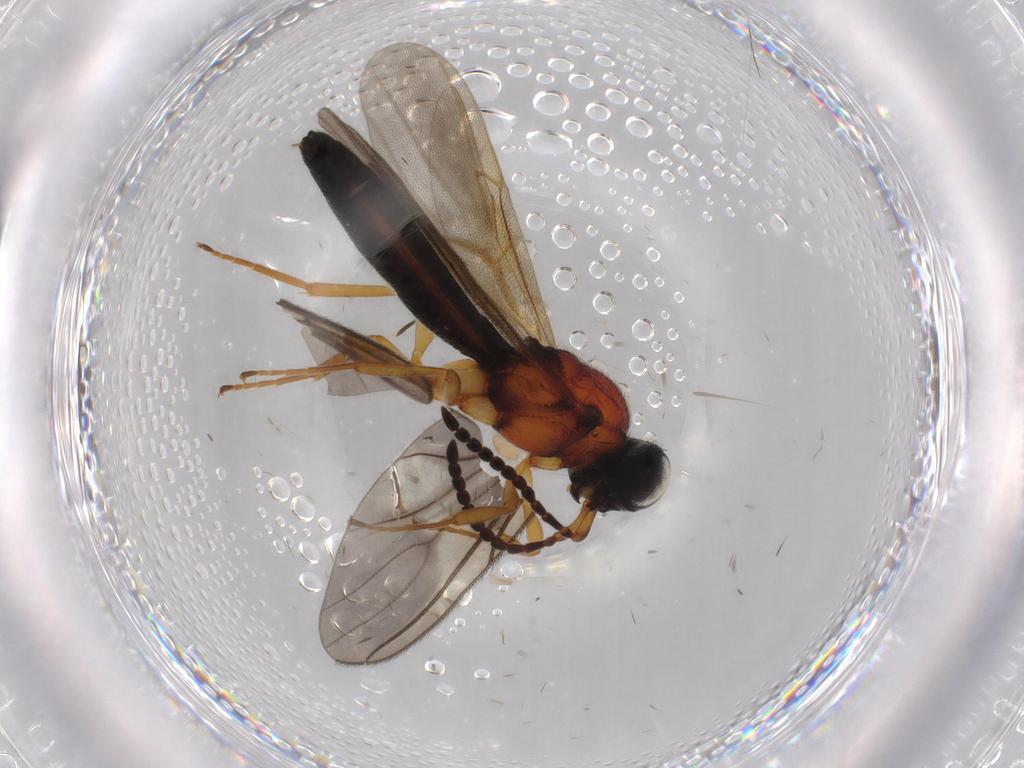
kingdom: Animalia
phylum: Arthropoda
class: Insecta
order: Hymenoptera
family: Scelionidae
